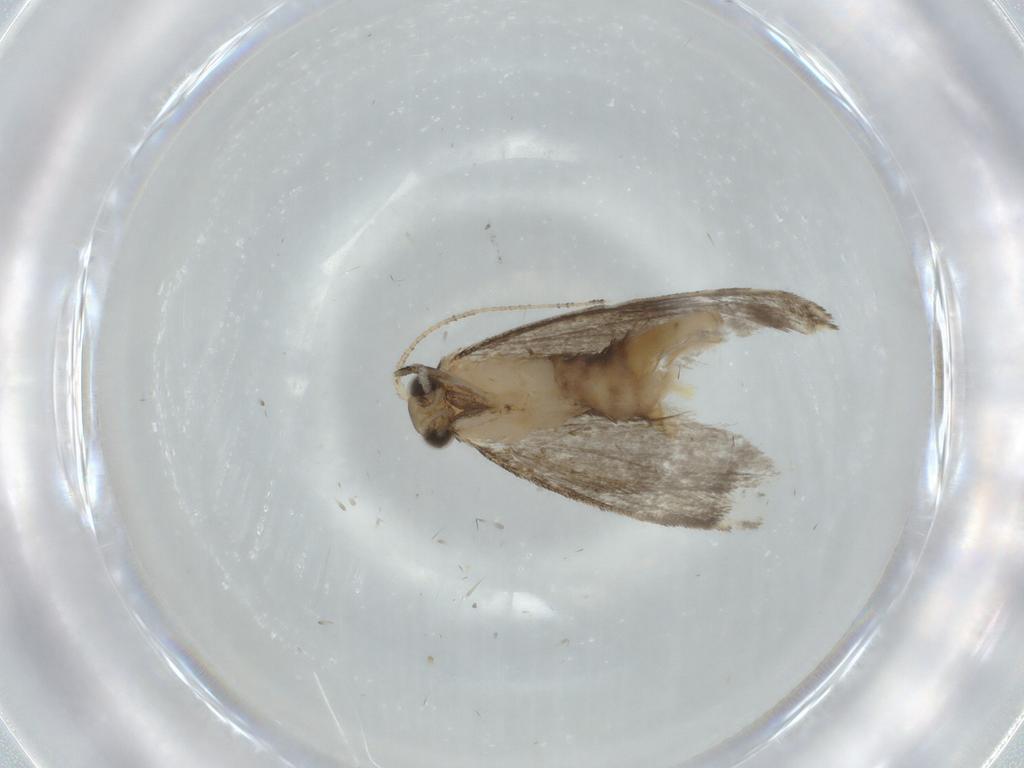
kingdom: Animalia
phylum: Arthropoda
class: Insecta
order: Lepidoptera
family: Tineidae
